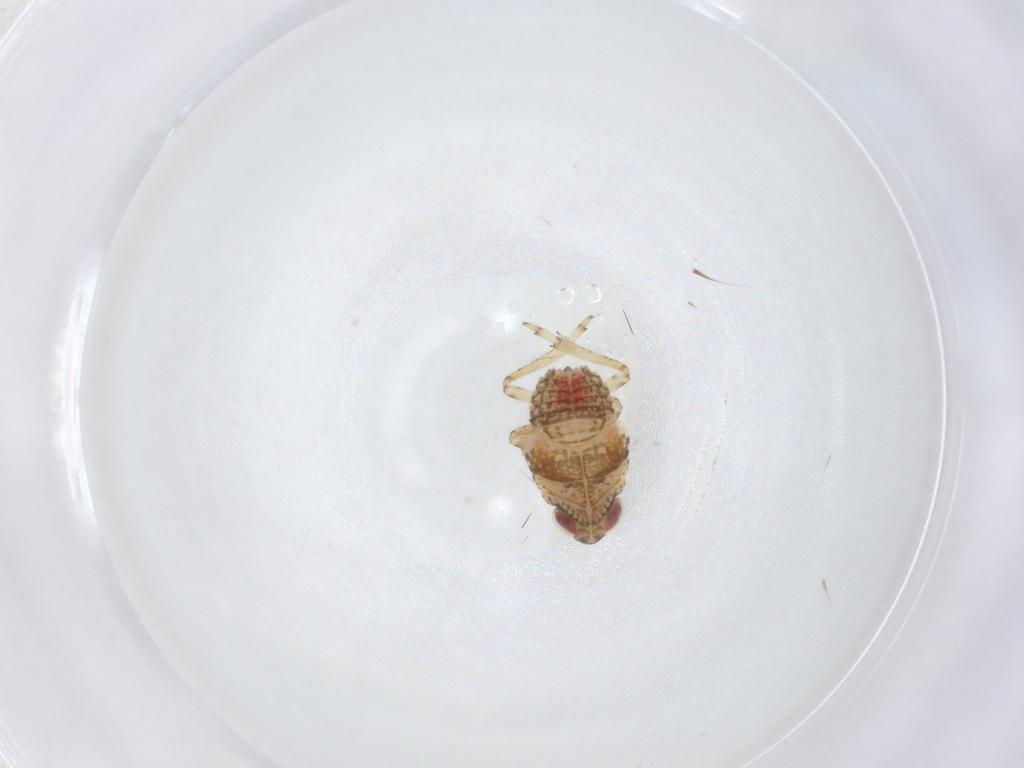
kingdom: Animalia
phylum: Arthropoda
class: Insecta
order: Hemiptera
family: Issidae
